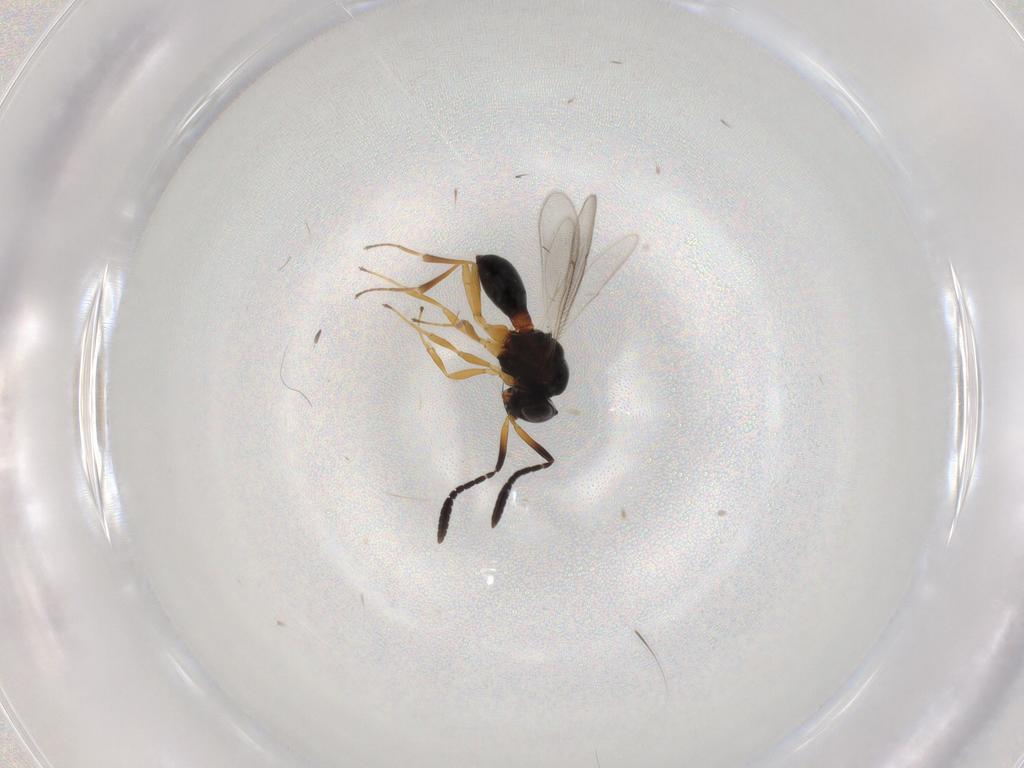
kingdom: Animalia
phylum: Arthropoda
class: Insecta
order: Hymenoptera
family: Scelionidae
